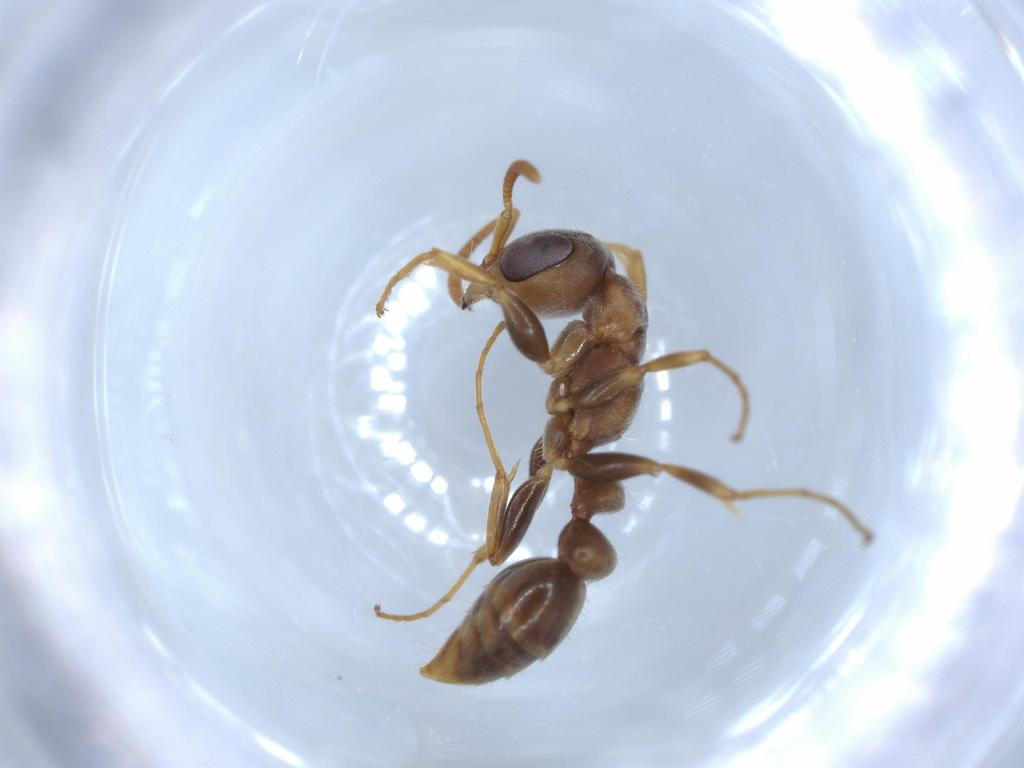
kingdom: Animalia
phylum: Arthropoda
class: Insecta
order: Hymenoptera
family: Formicidae
